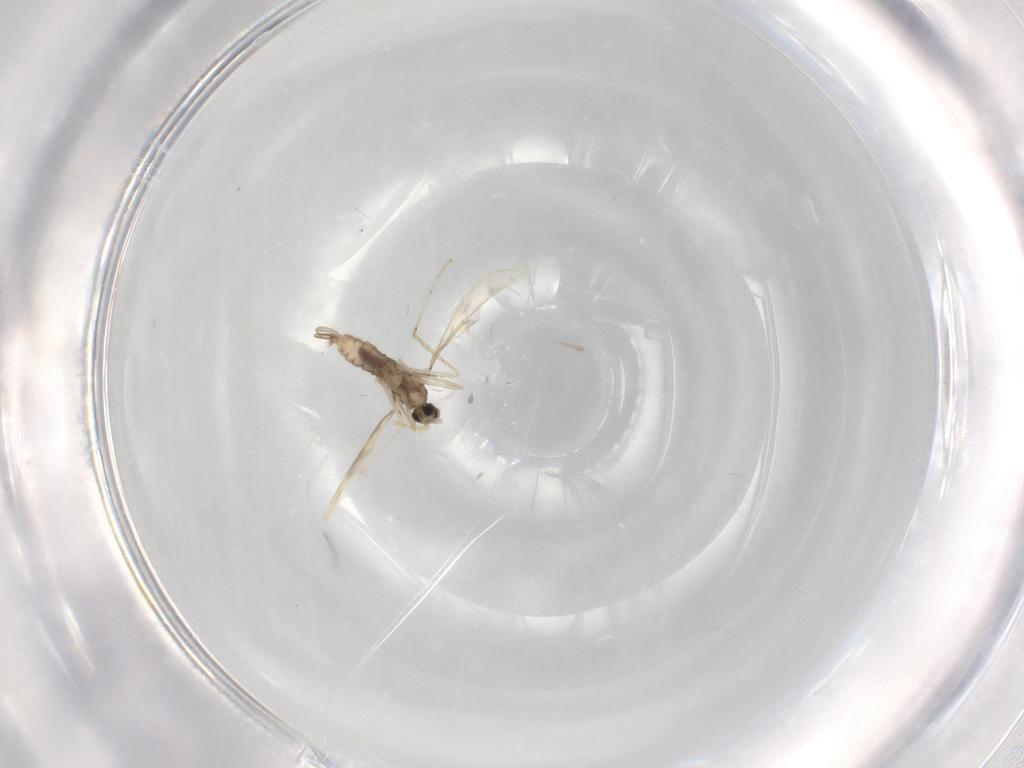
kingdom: Animalia
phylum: Arthropoda
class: Insecta
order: Diptera
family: Cecidomyiidae
